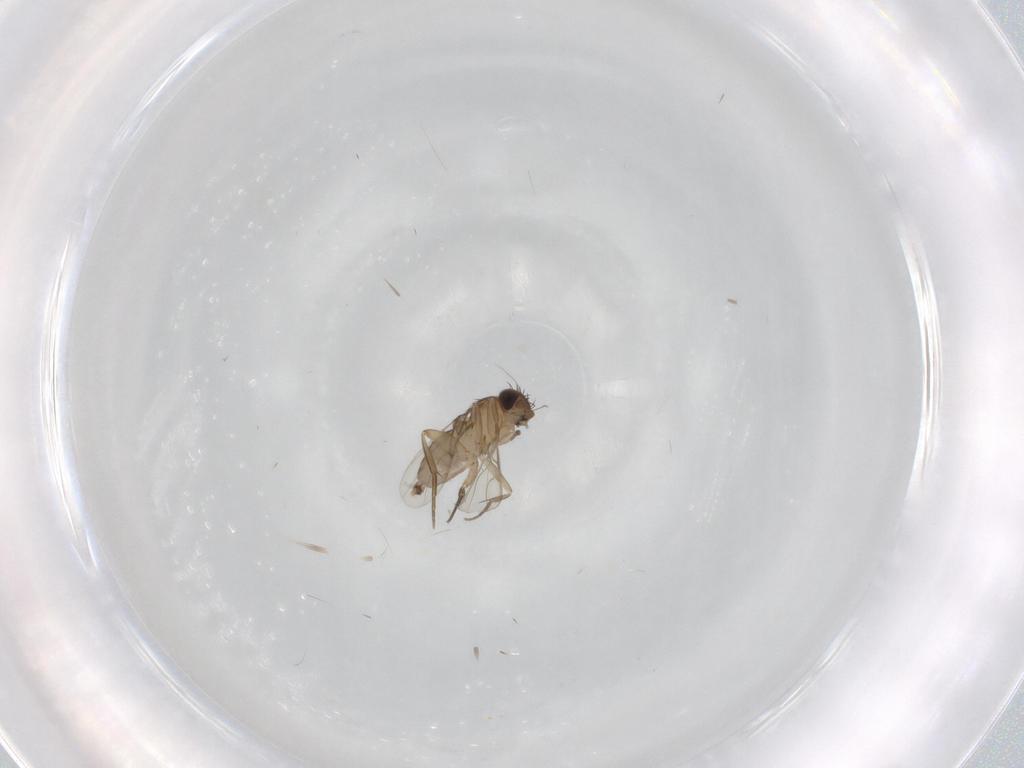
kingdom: Animalia
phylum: Arthropoda
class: Insecta
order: Diptera
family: Phoridae
